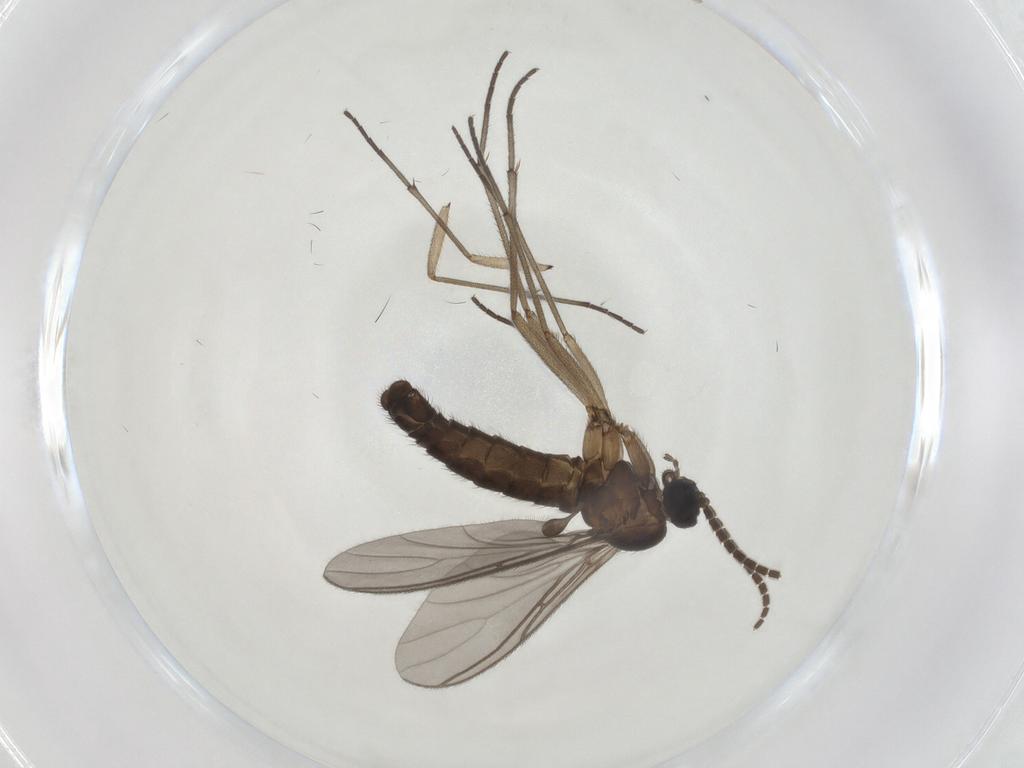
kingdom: Animalia
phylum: Arthropoda
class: Insecta
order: Diptera
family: Sciaridae
